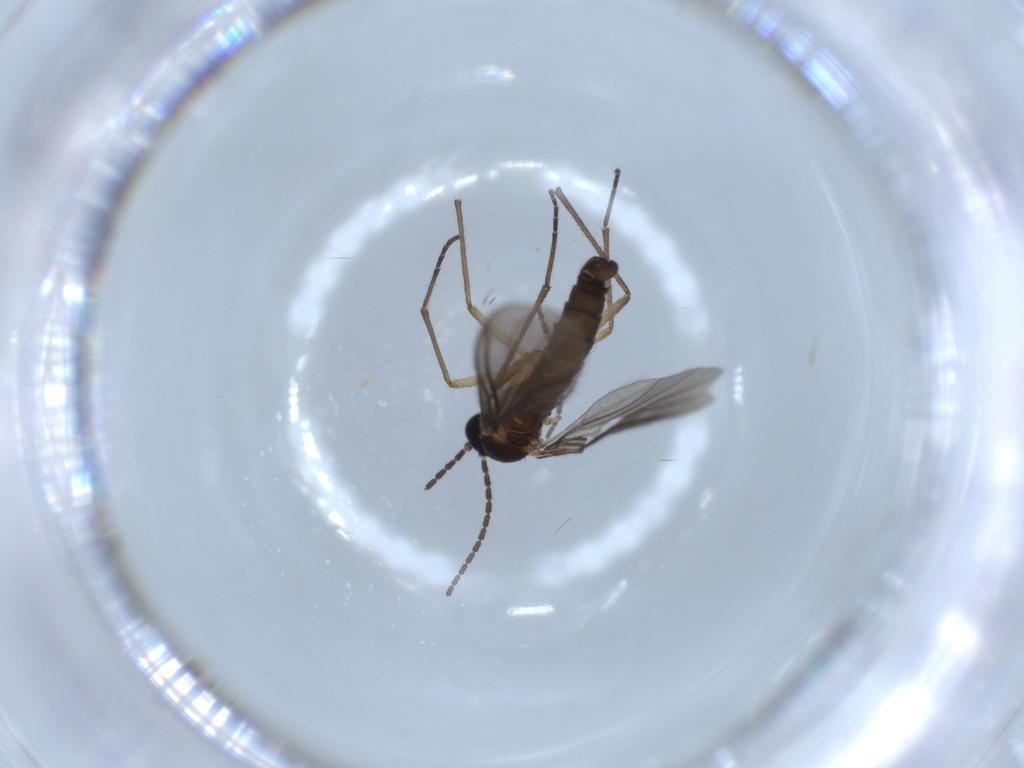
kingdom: Animalia
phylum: Arthropoda
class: Insecta
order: Diptera
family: Sciaridae
